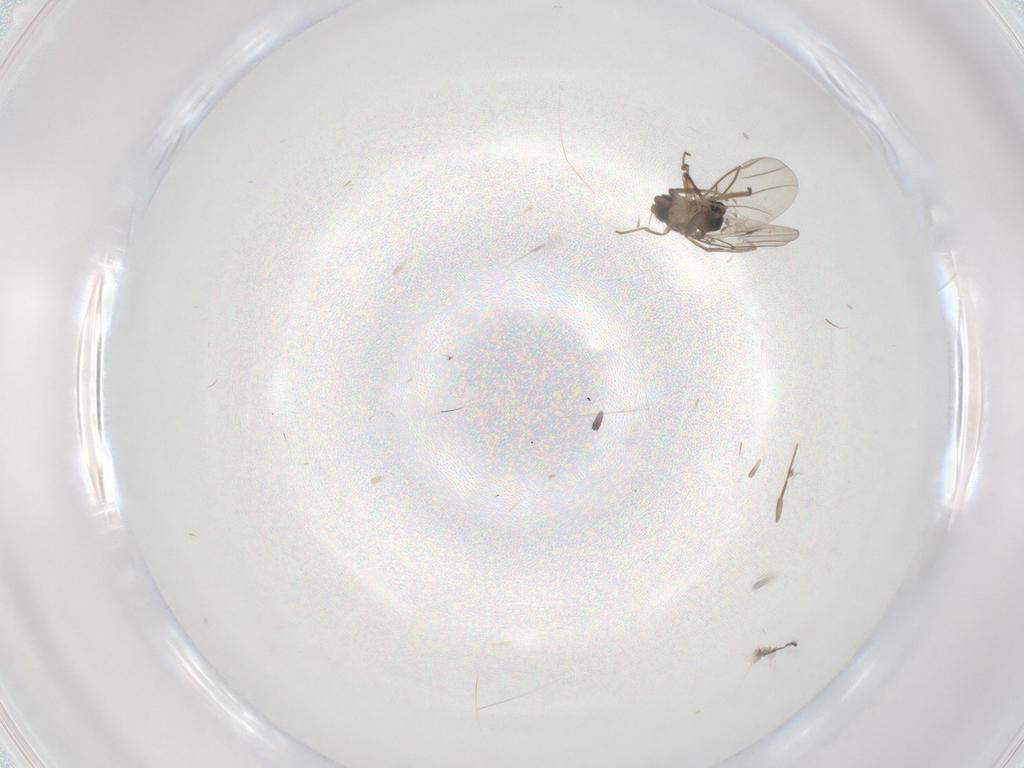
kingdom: Animalia
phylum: Arthropoda
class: Insecta
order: Diptera
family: Phoridae
